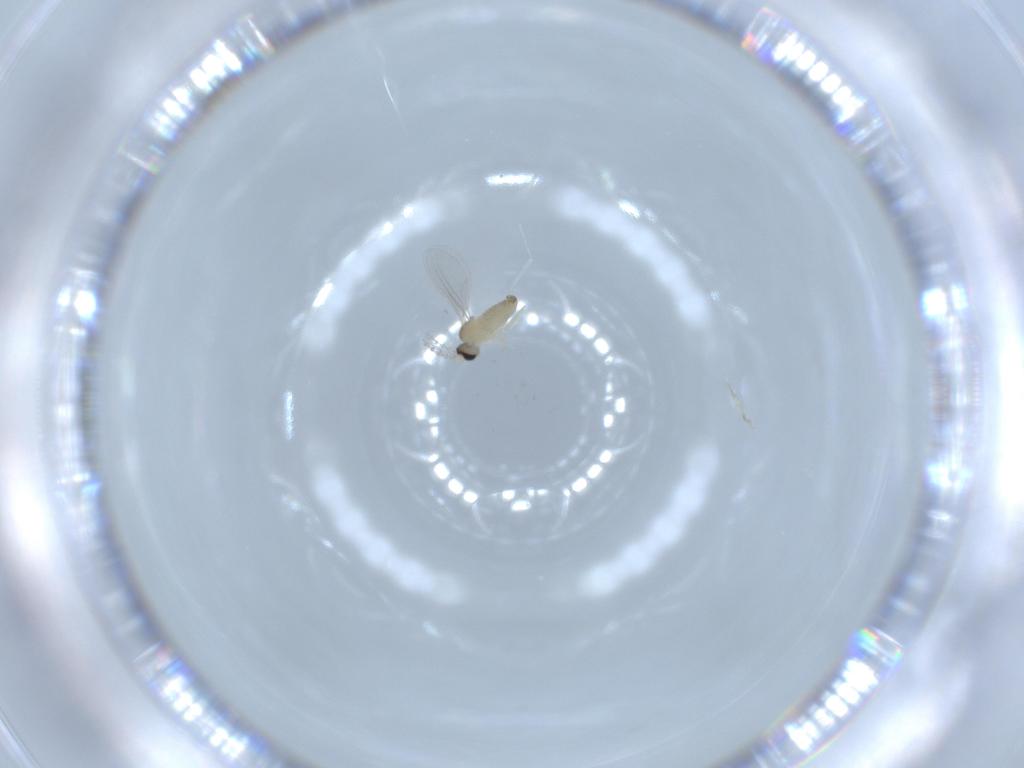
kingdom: Animalia
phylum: Arthropoda
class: Insecta
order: Diptera
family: Cecidomyiidae
